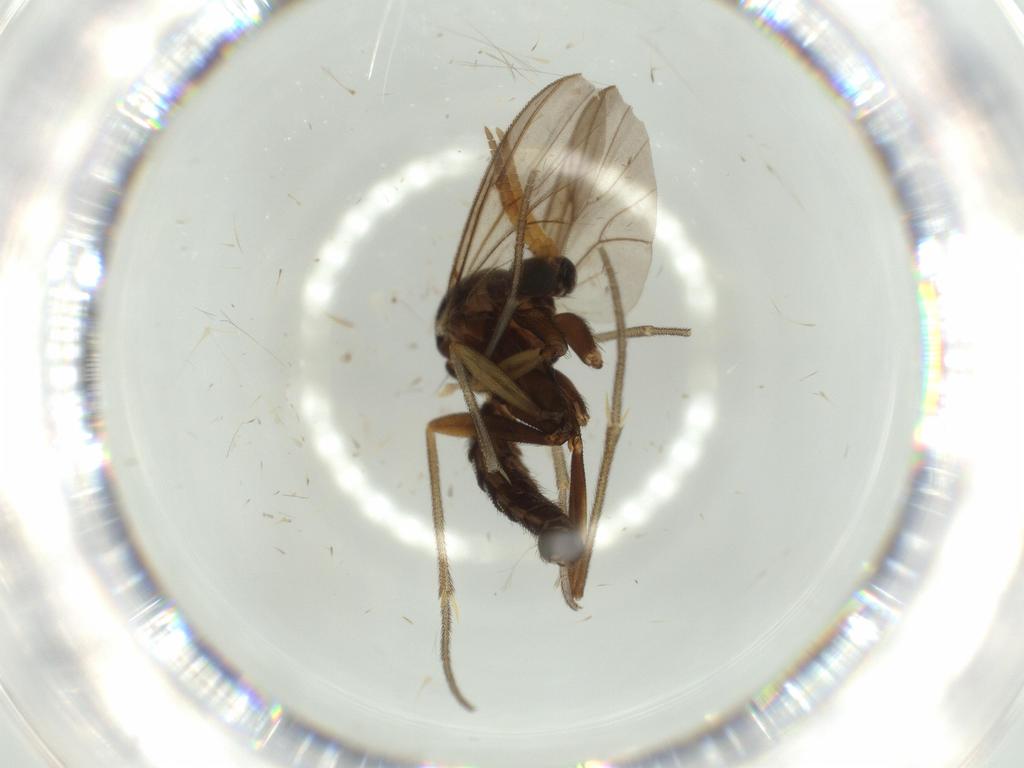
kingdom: Animalia
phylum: Arthropoda
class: Insecta
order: Diptera
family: Mycetophilidae
